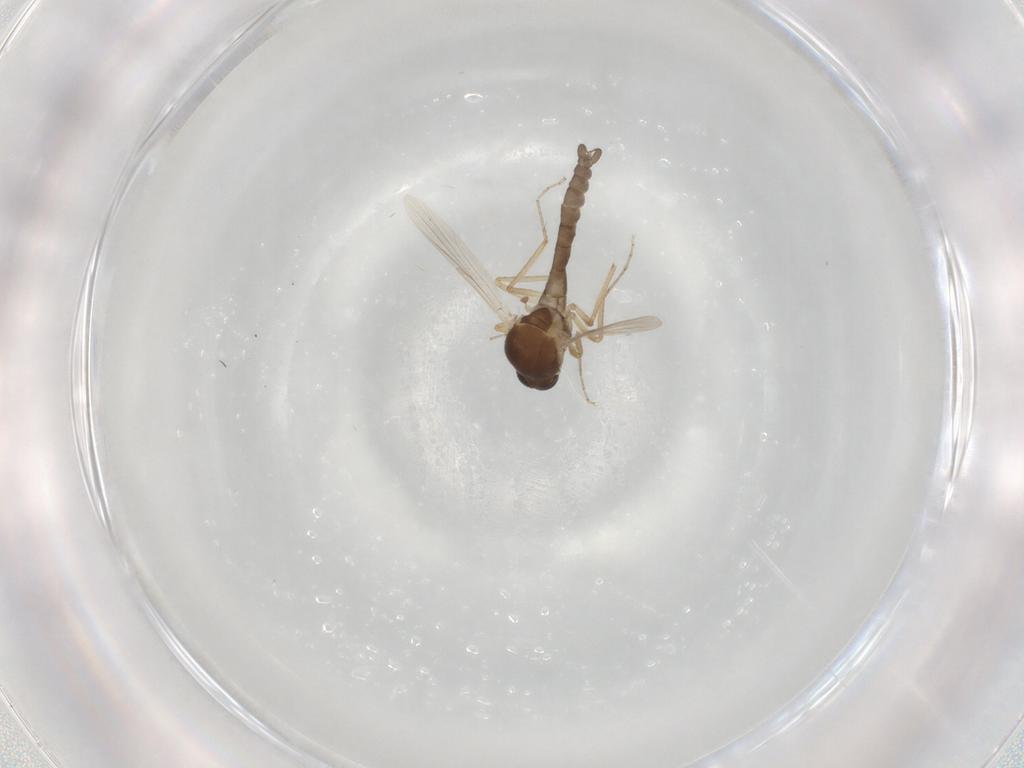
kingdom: Animalia
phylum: Arthropoda
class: Insecta
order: Diptera
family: Ceratopogonidae
